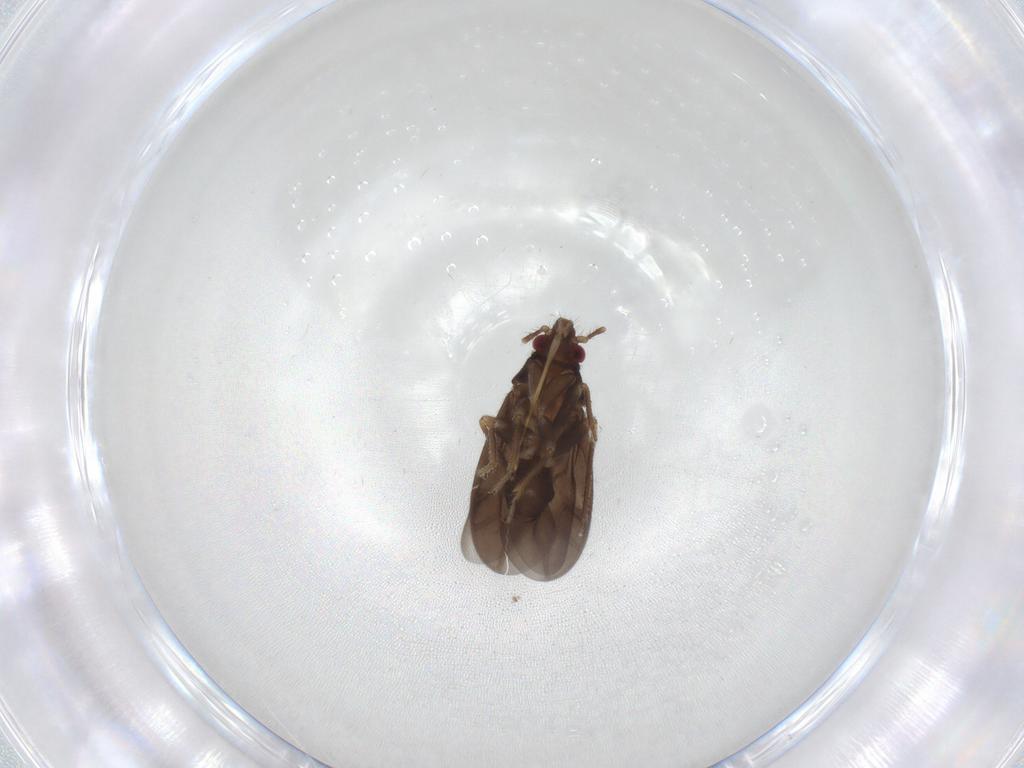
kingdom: Animalia
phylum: Arthropoda
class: Insecta
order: Hemiptera
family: Ceratocombidae
